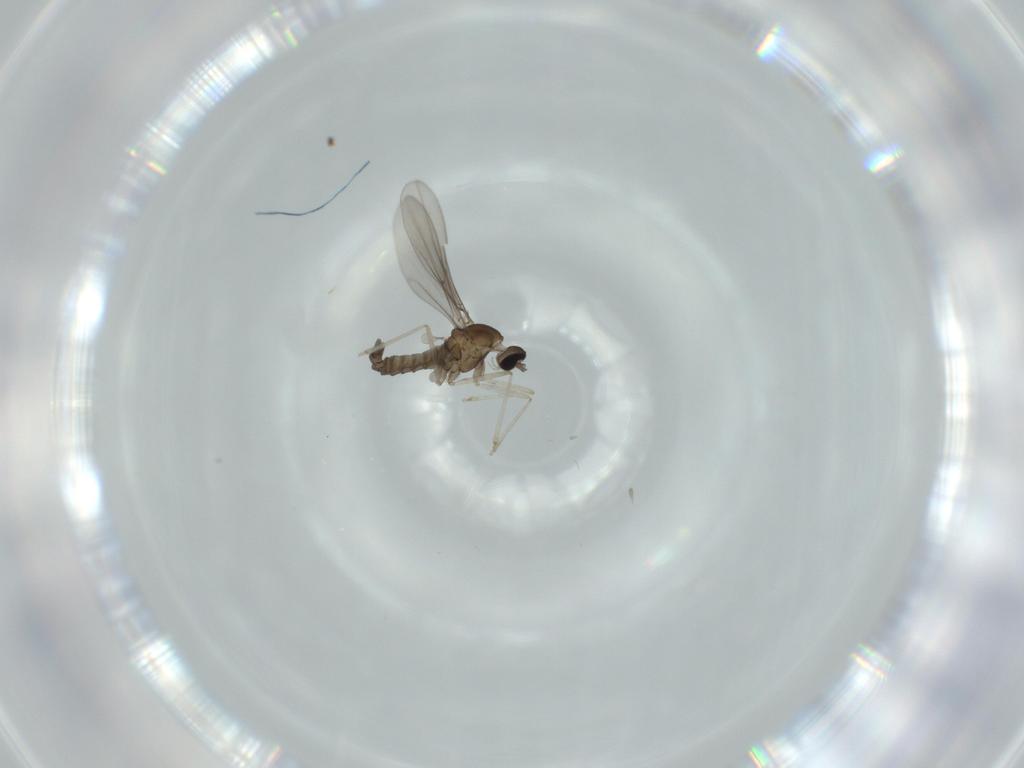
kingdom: Animalia
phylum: Arthropoda
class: Insecta
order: Diptera
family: Cecidomyiidae
